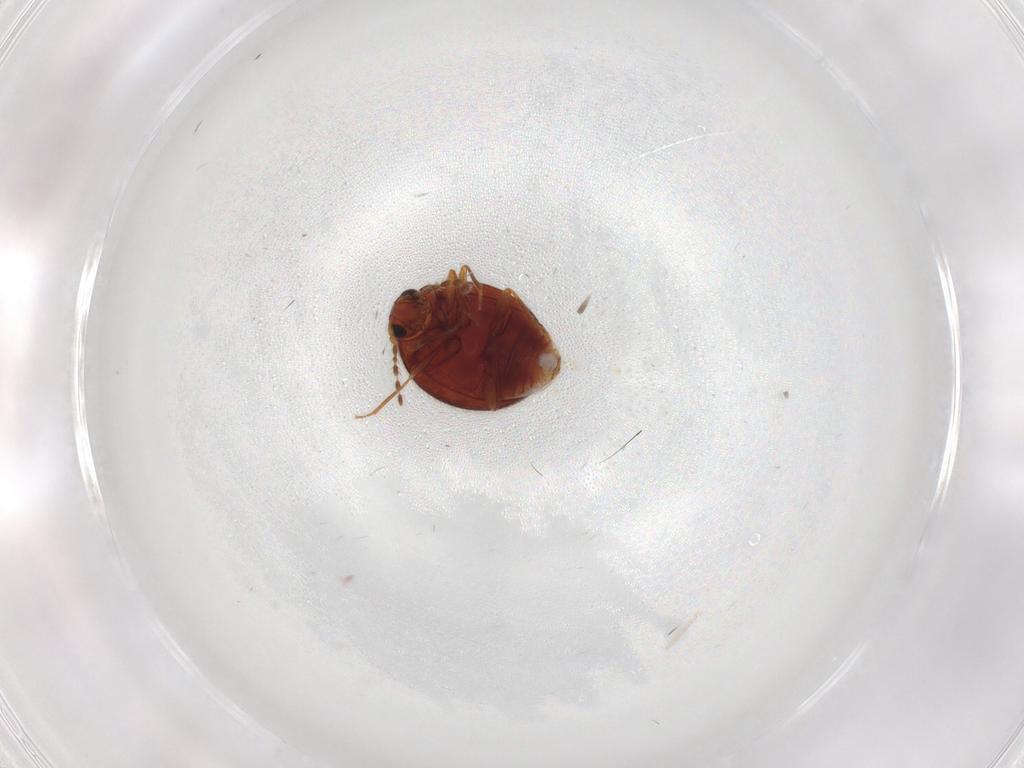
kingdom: Animalia
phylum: Arthropoda
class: Insecta
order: Coleoptera
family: Anamorphidae
